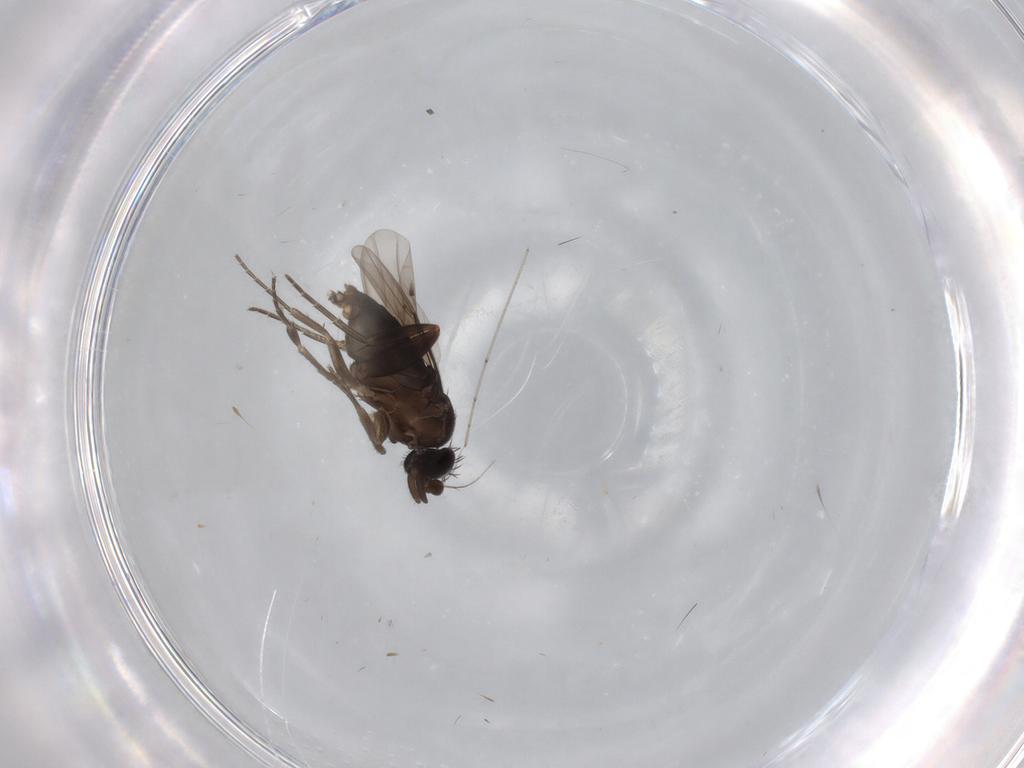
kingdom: Animalia
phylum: Arthropoda
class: Insecta
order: Diptera
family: Phoridae
